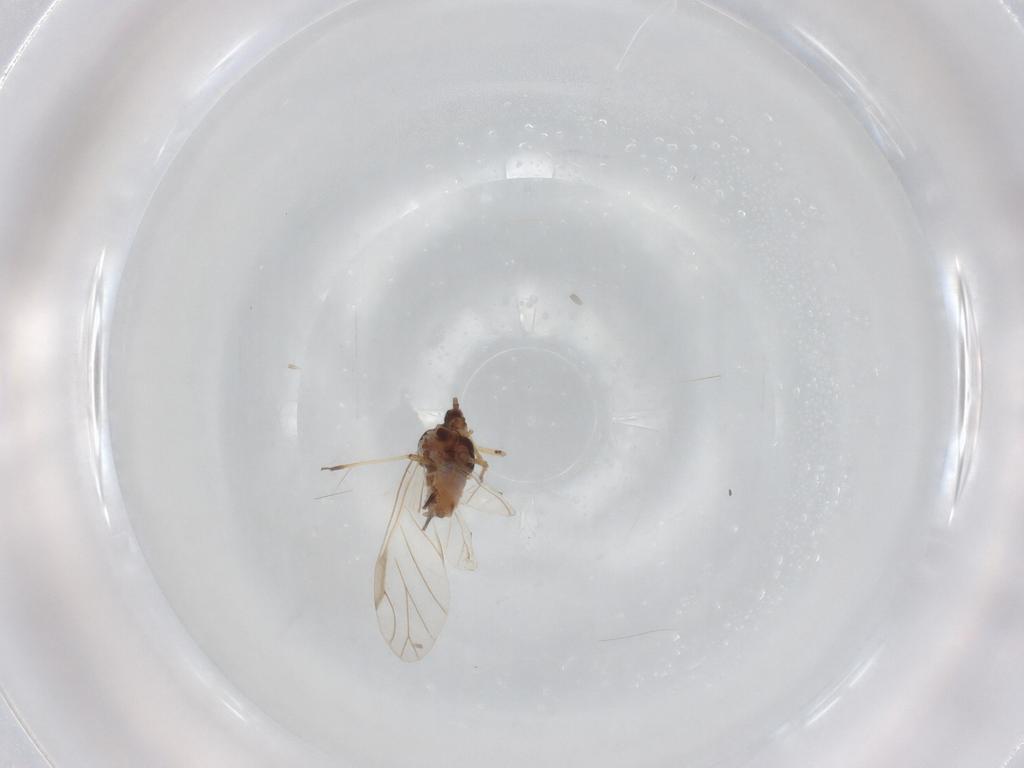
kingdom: Animalia
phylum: Arthropoda
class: Insecta
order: Hemiptera
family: Aphididae
